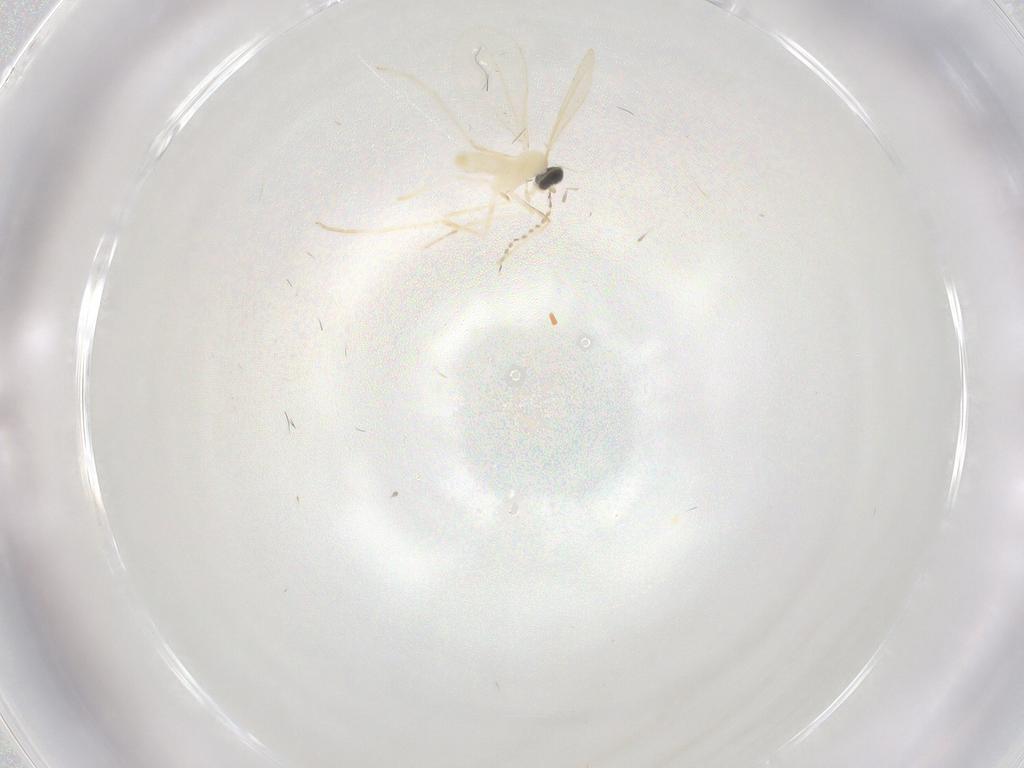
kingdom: Animalia
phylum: Arthropoda
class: Insecta
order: Diptera
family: Cecidomyiidae
